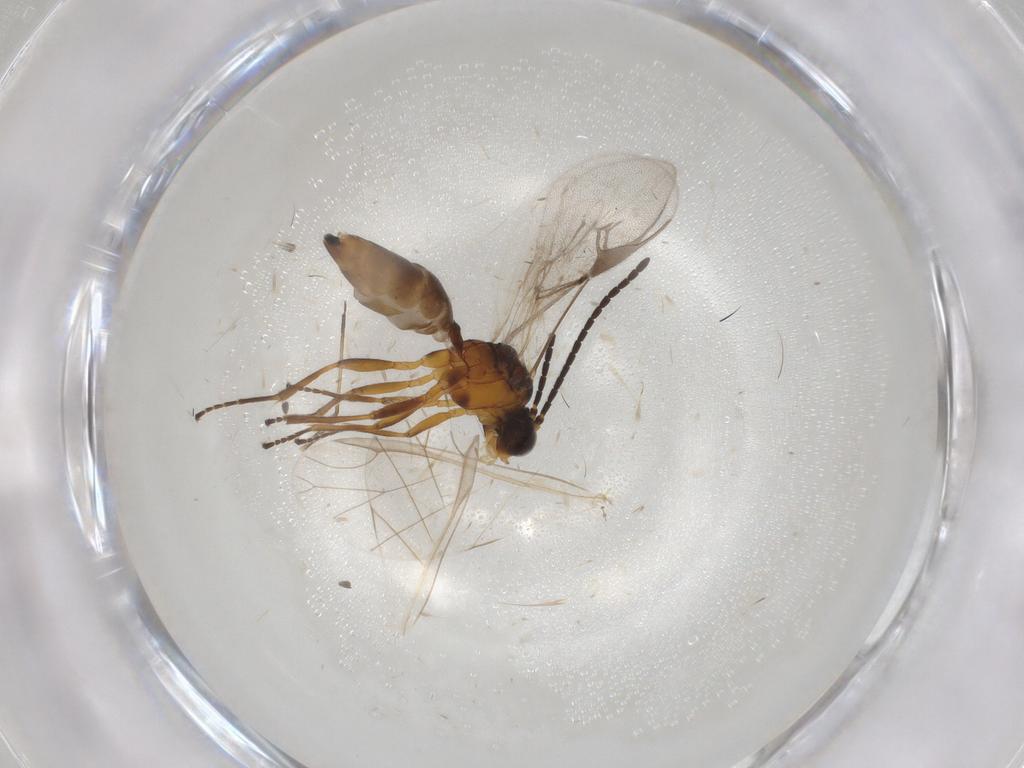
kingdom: Animalia
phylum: Arthropoda
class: Insecta
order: Hymenoptera
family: Braconidae
